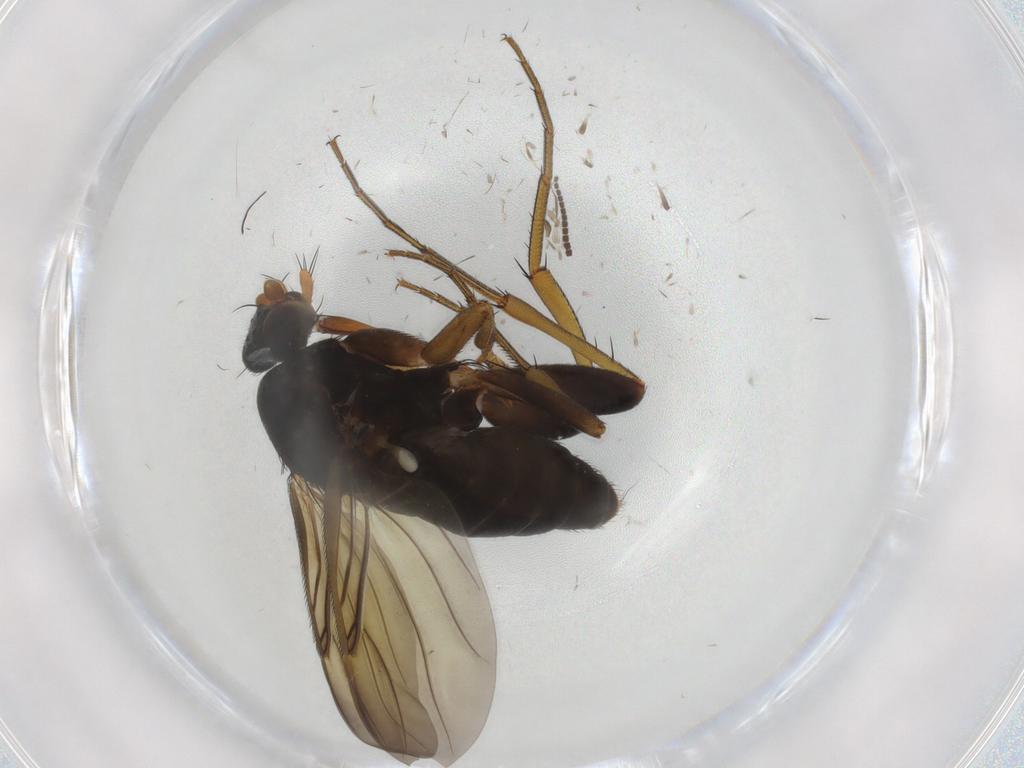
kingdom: Animalia
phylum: Arthropoda
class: Insecta
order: Diptera
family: Phoridae
